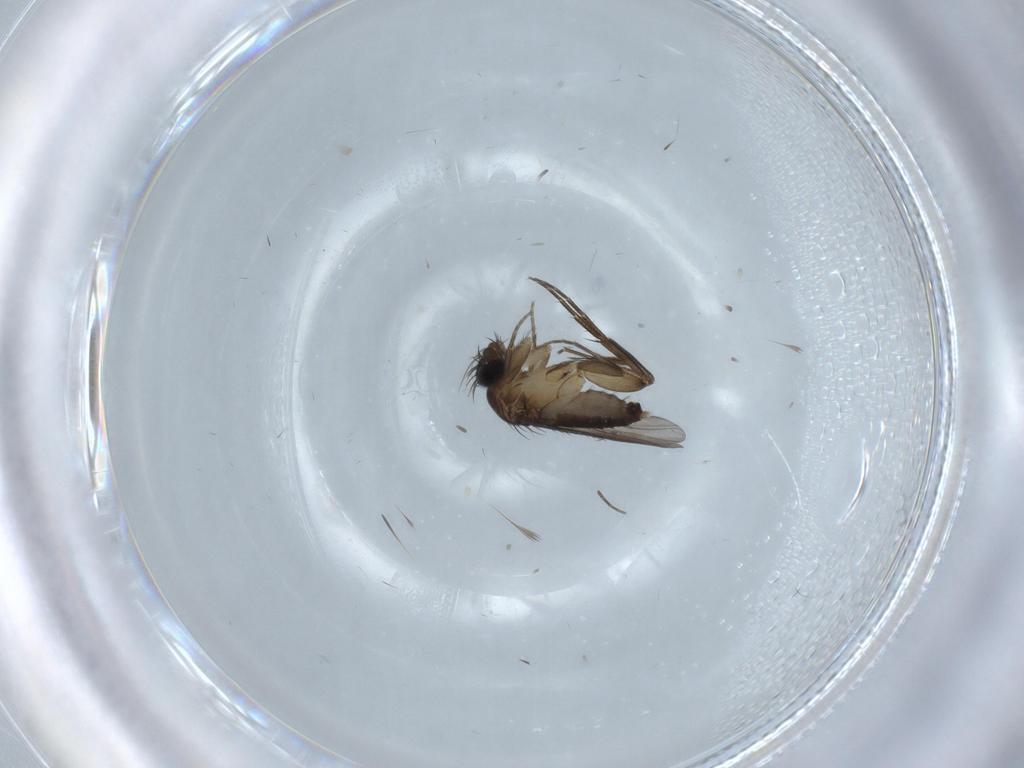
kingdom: Animalia
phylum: Arthropoda
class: Insecta
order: Diptera
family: Phoridae
